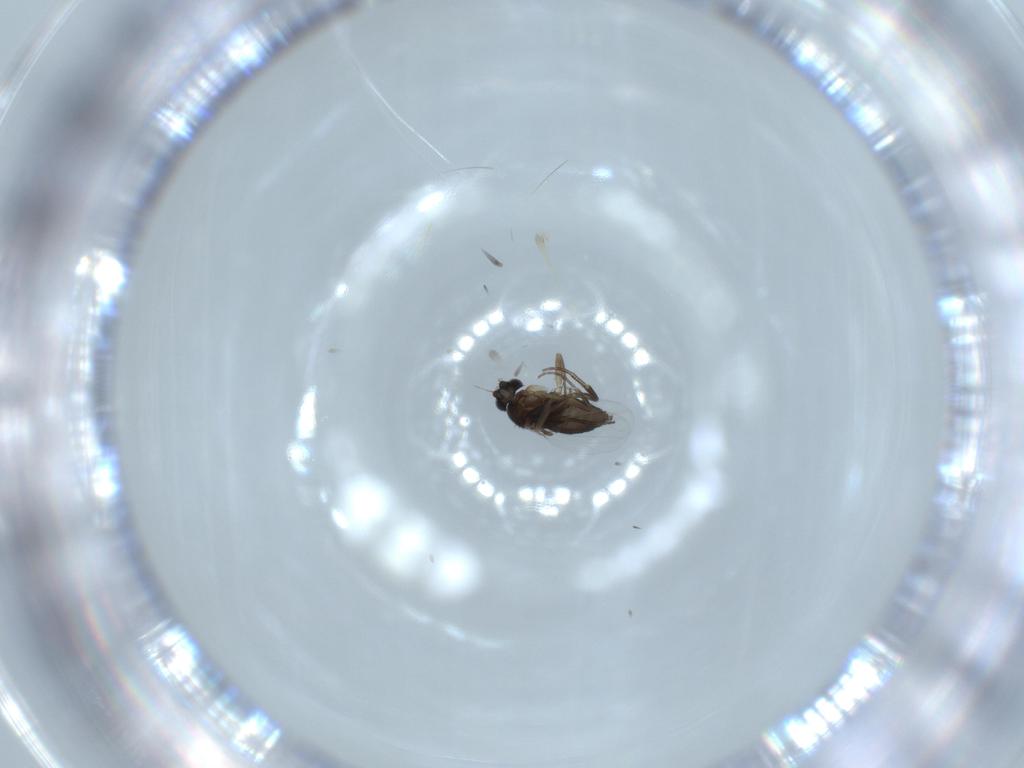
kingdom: Animalia
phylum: Arthropoda
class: Insecta
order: Diptera
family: Phoridae
